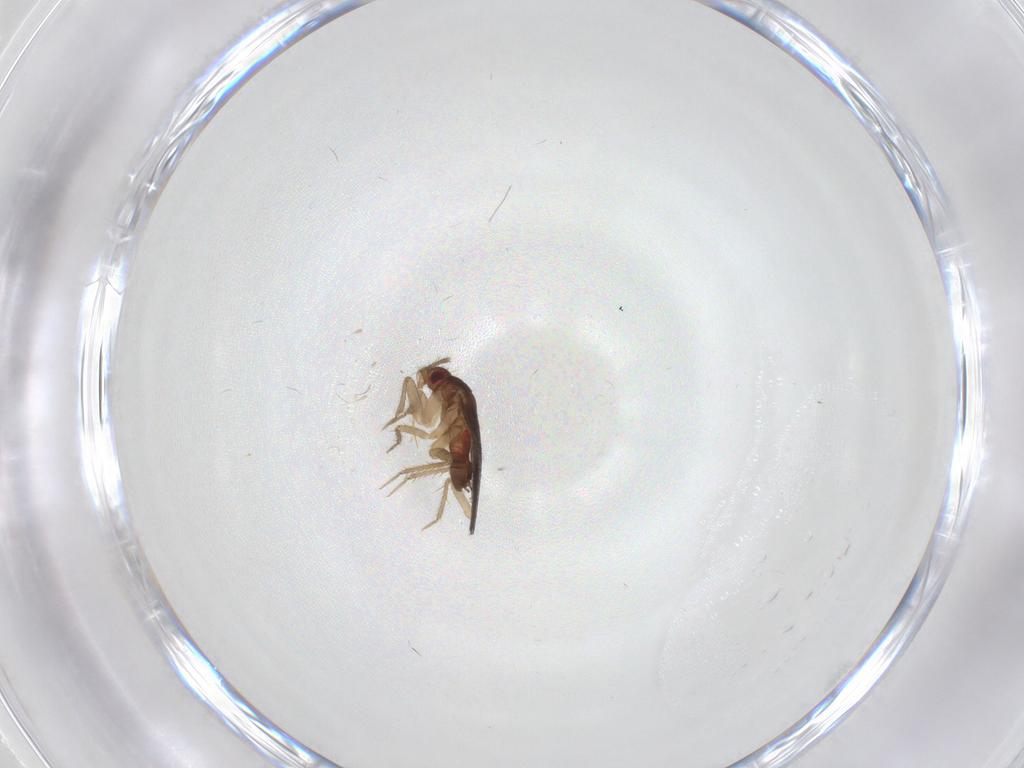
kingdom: Animalia
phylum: Arthropoda
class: Insecta
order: Hemiptera
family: Ceratocombidae
